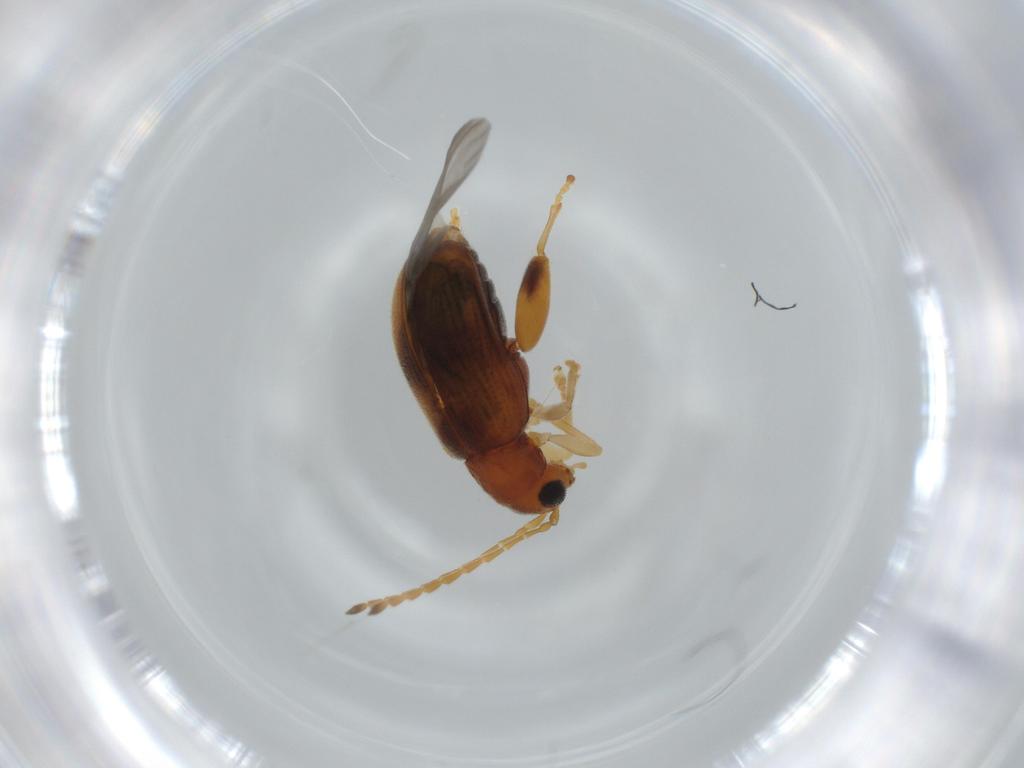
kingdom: Animalia
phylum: Arthropoda
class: Insecta
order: Coleoptera
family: Chrysomelidae
